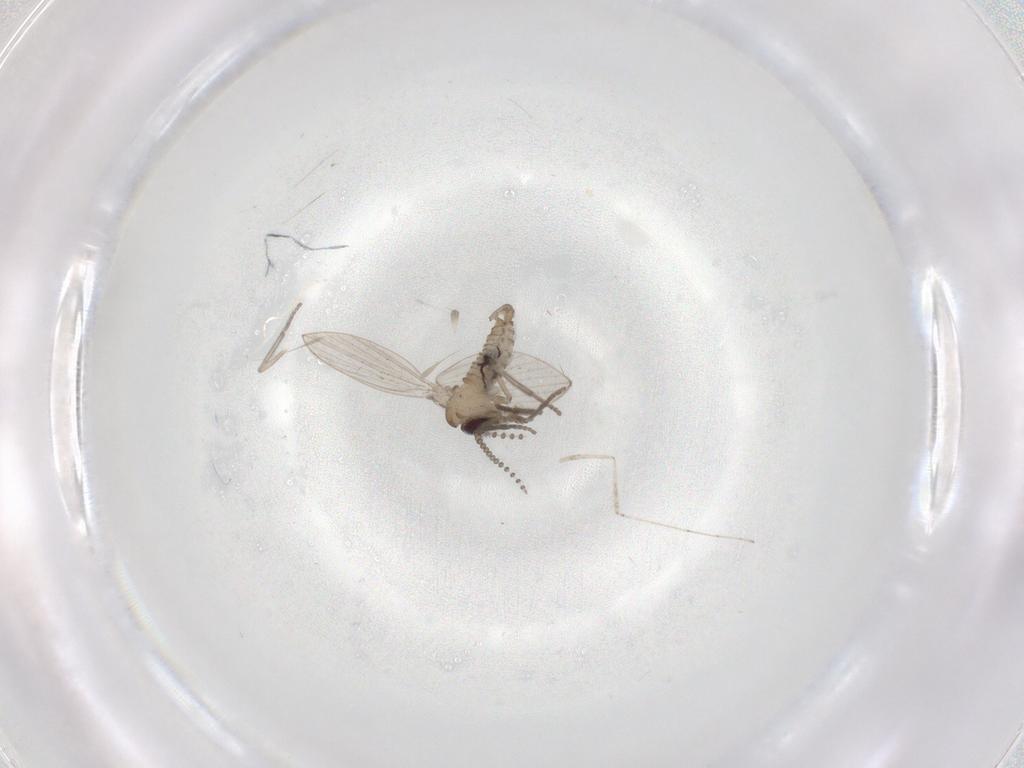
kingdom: Animalia
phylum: Arthropoda
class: Insecta
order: Diptera
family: Psychodidae
